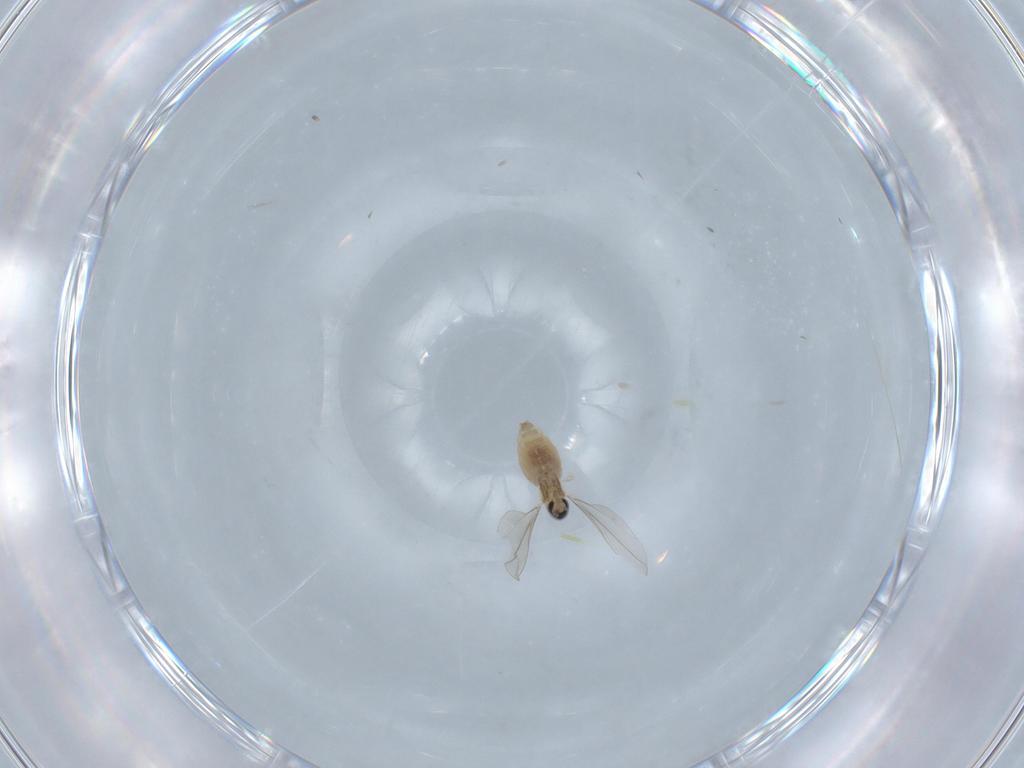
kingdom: Animalia
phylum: Arthropoda
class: Insecta
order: Diptera
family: Cecidomyiidae
